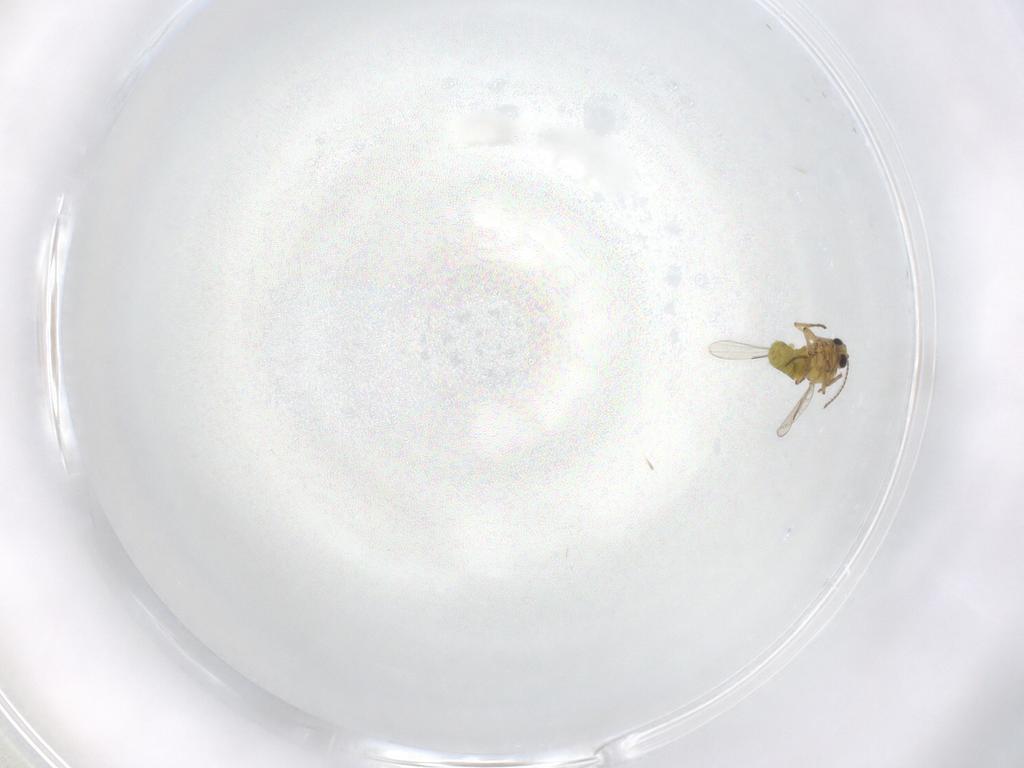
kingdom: Animalia
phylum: Arthropoda
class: Insecta
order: Diptera
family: Ceratopogonidae
